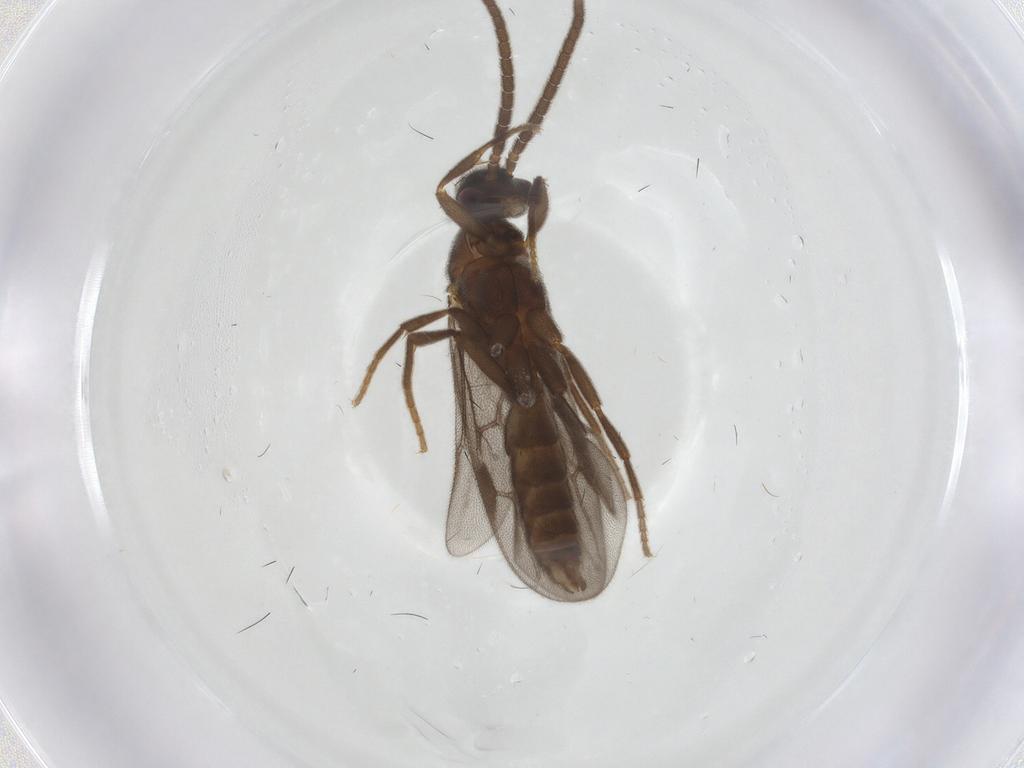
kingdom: Animalia
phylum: Arthropoda
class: Insecta
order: Hymenoptera
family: Formicidae
